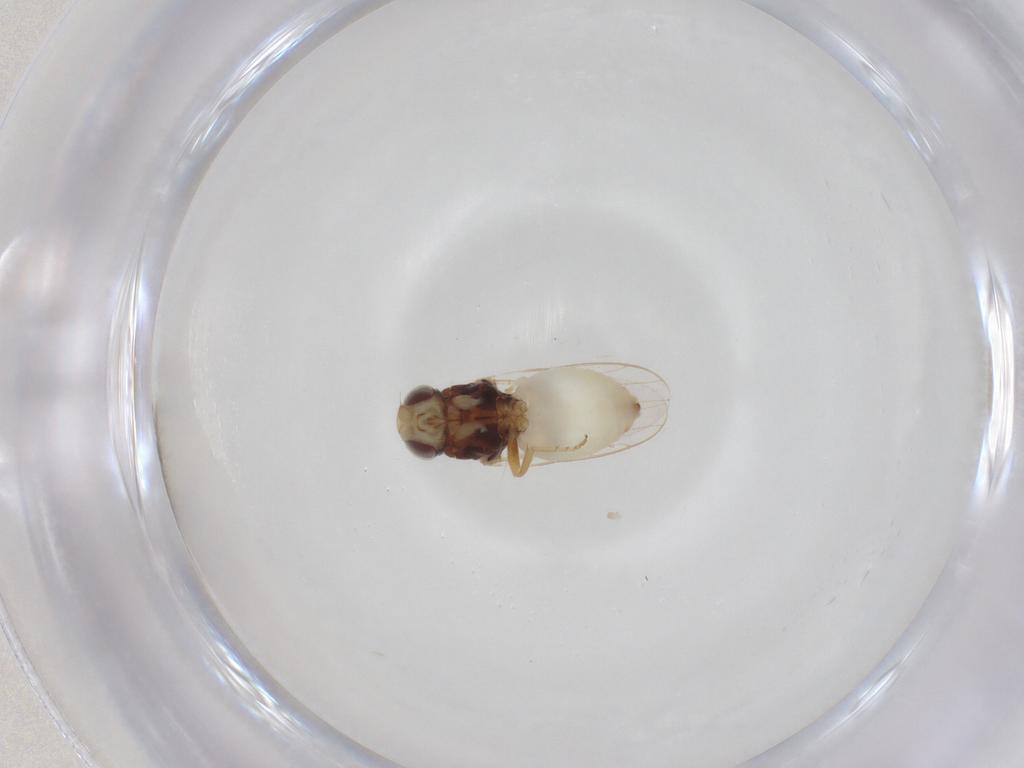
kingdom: Animalia
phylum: Arthropoda
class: Insecta
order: Diptera
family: Chloropidae
